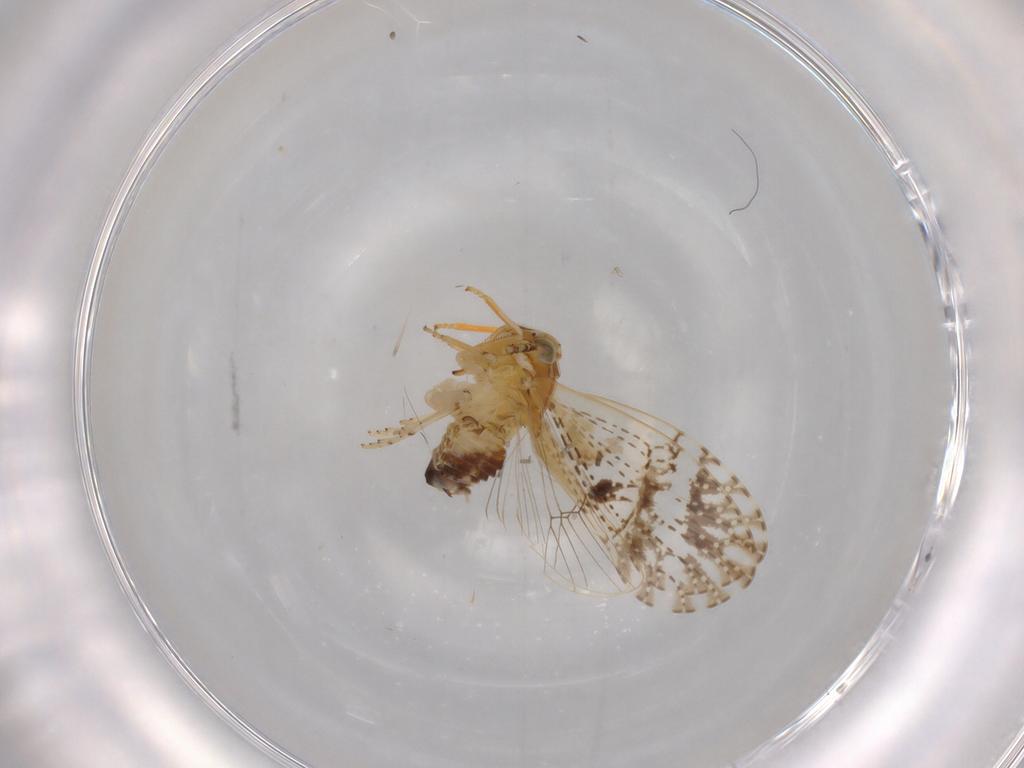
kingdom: Animalia
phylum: Arthropoda
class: Insecta
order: Hemiptera
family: Delphacidae
